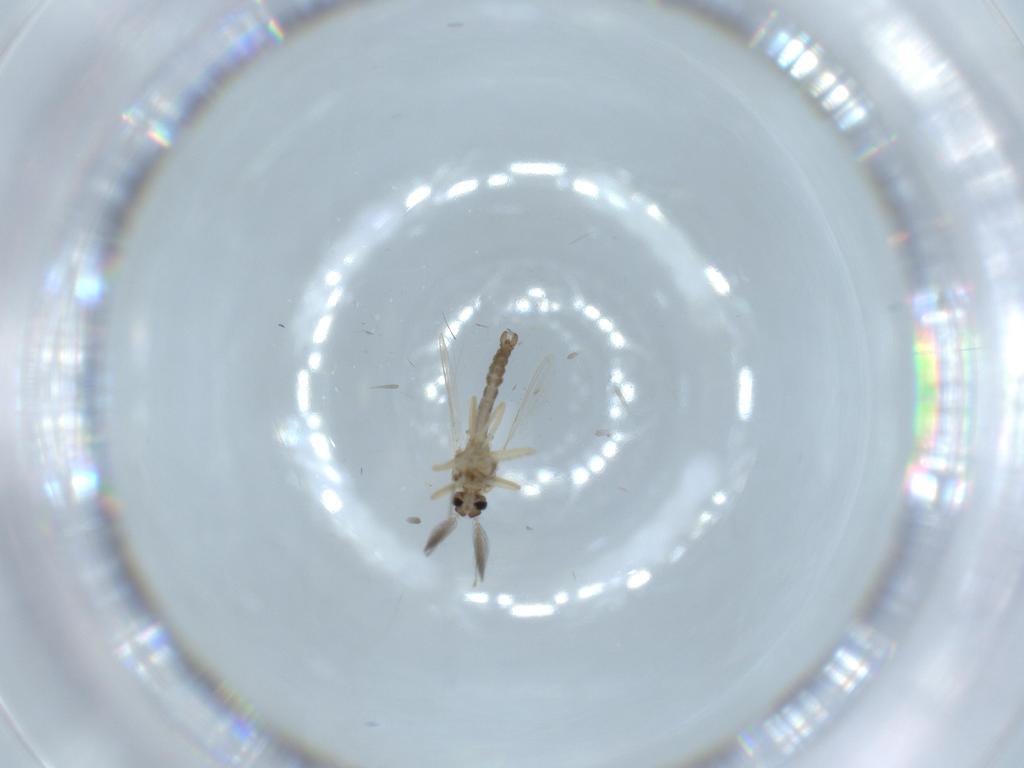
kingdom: Animalia
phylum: Arthropoda
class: Insecta
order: Diptera
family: Ceratopogonidae
